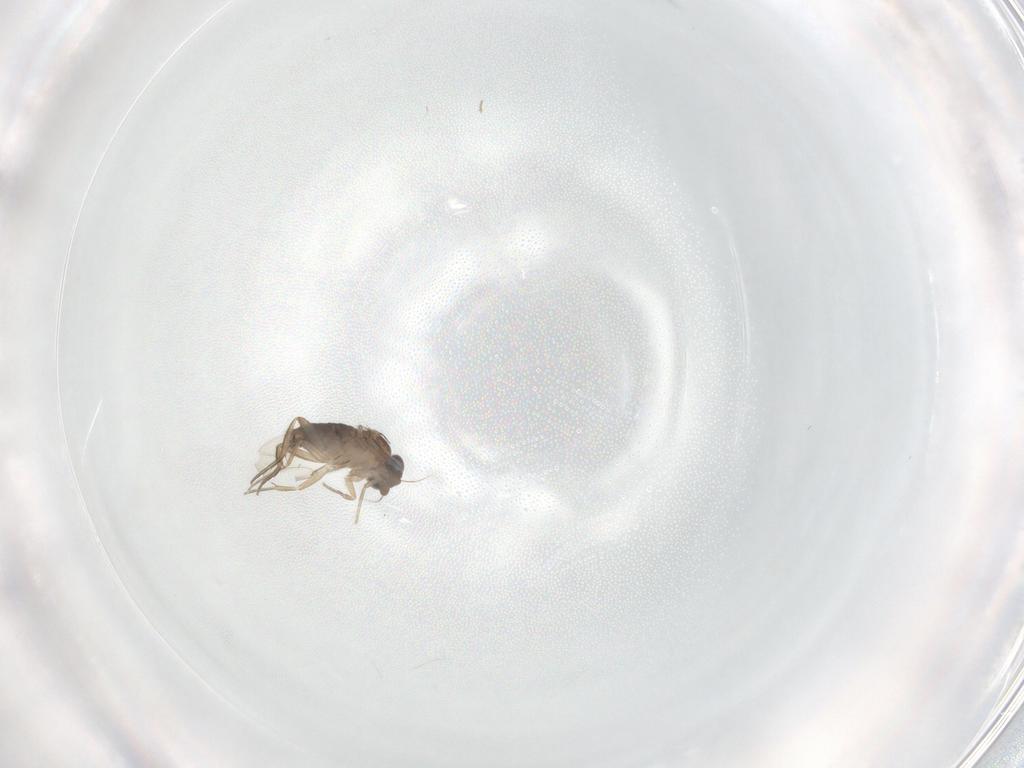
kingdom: Animalia
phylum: Arthropoda
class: Insecta
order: Diptera
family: Phoridae
